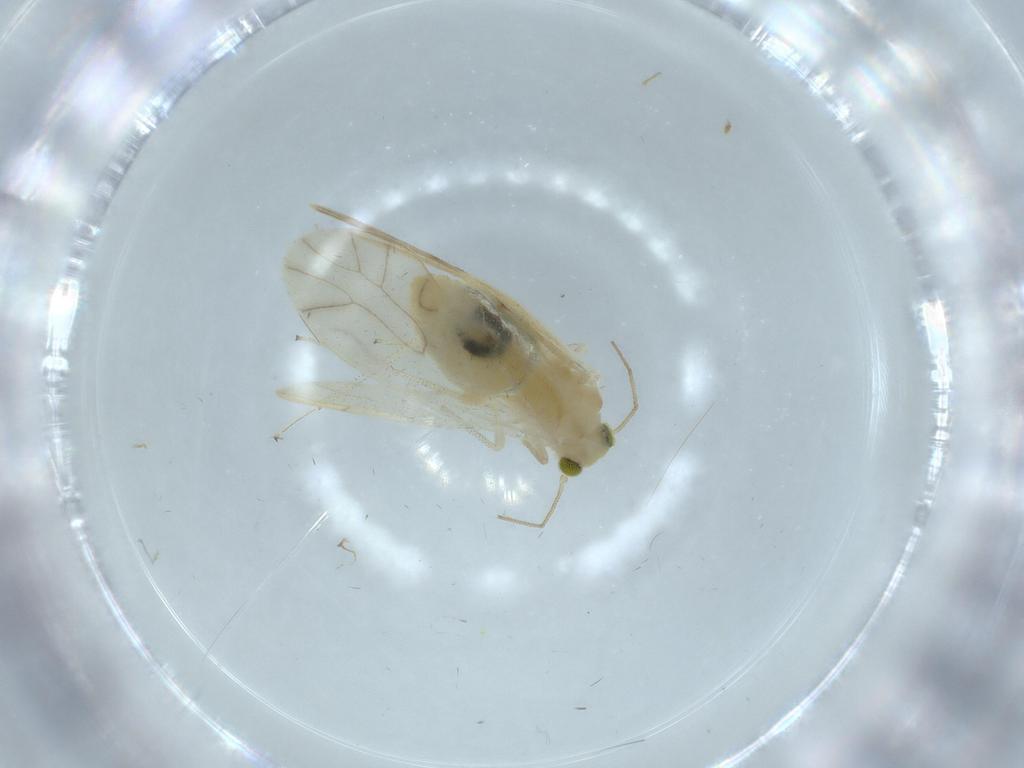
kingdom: Animalia
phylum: Arthropoda
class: Insecta
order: Psocodea
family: Caeciliusidae
